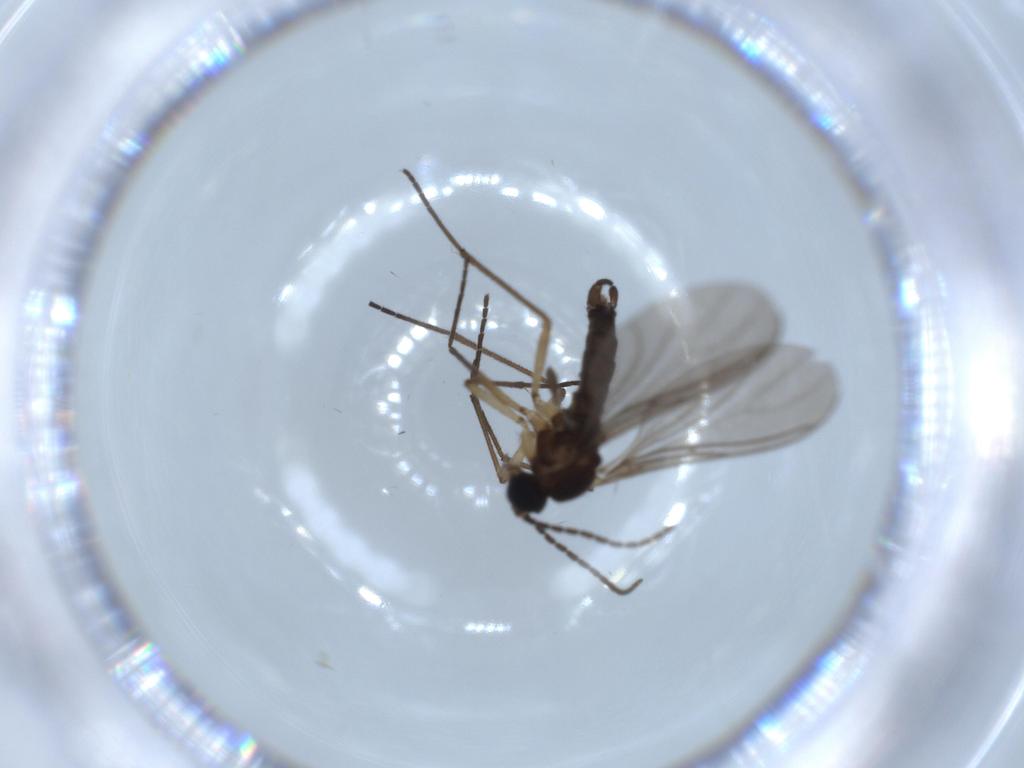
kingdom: Animalia
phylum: Arthropoda
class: Insecta
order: Diptera
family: Sciaridae
